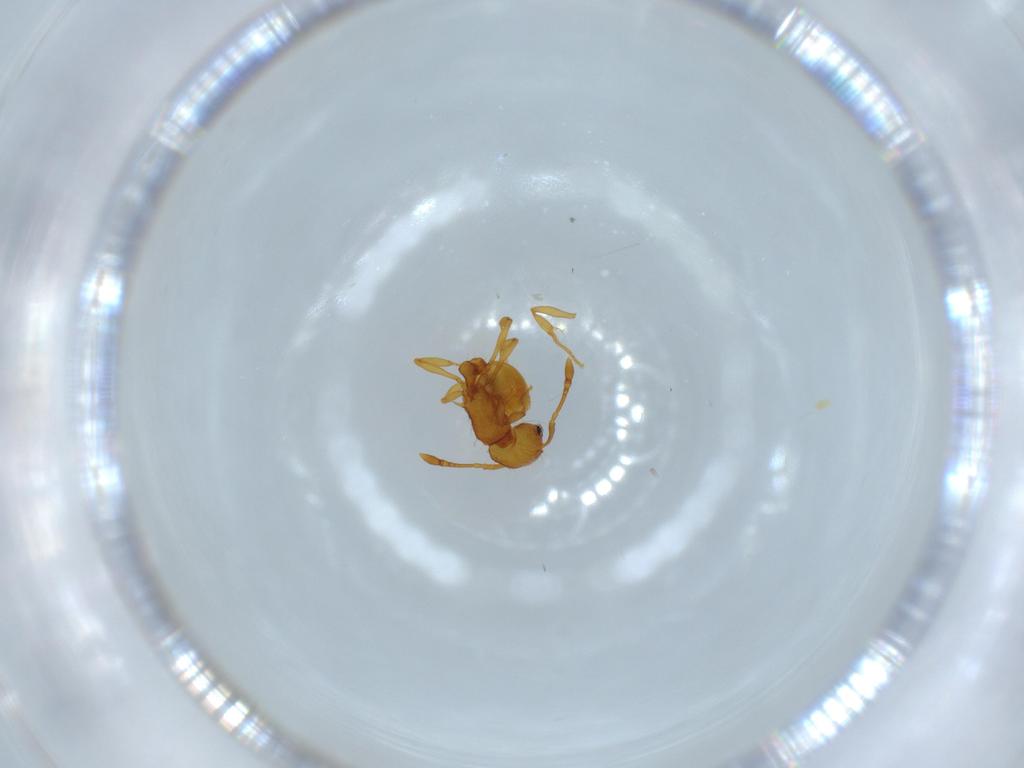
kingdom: Animalia
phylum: Arthropoda
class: Insecta
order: Hymenoptera
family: Formicidae
